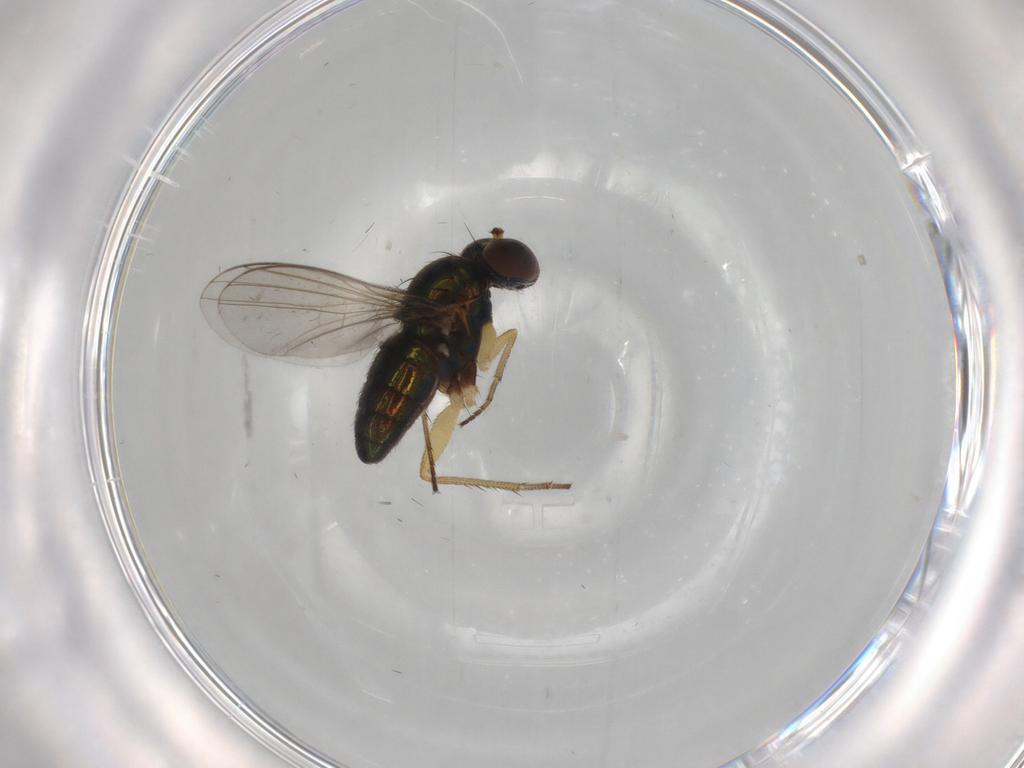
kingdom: Animalia
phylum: Arthropoda
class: Insecta
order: Diptera
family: Dolichopodidae
